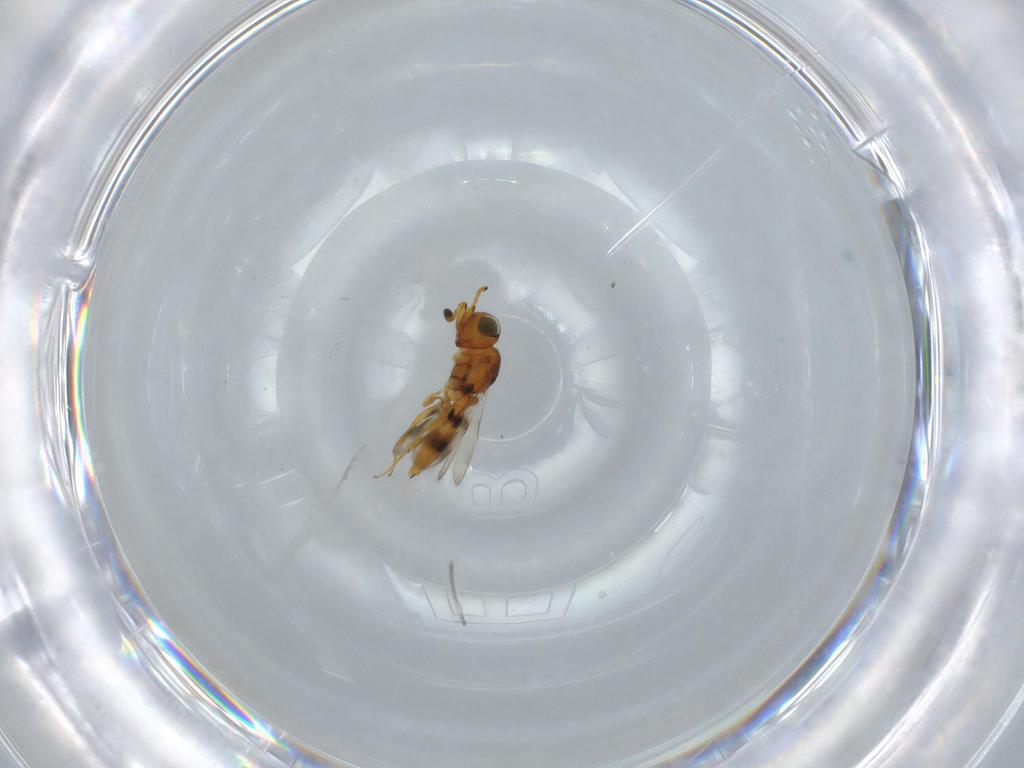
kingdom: Animalia
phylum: Arthropoda
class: Insecta
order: Hymenoptera
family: Scelionidae
